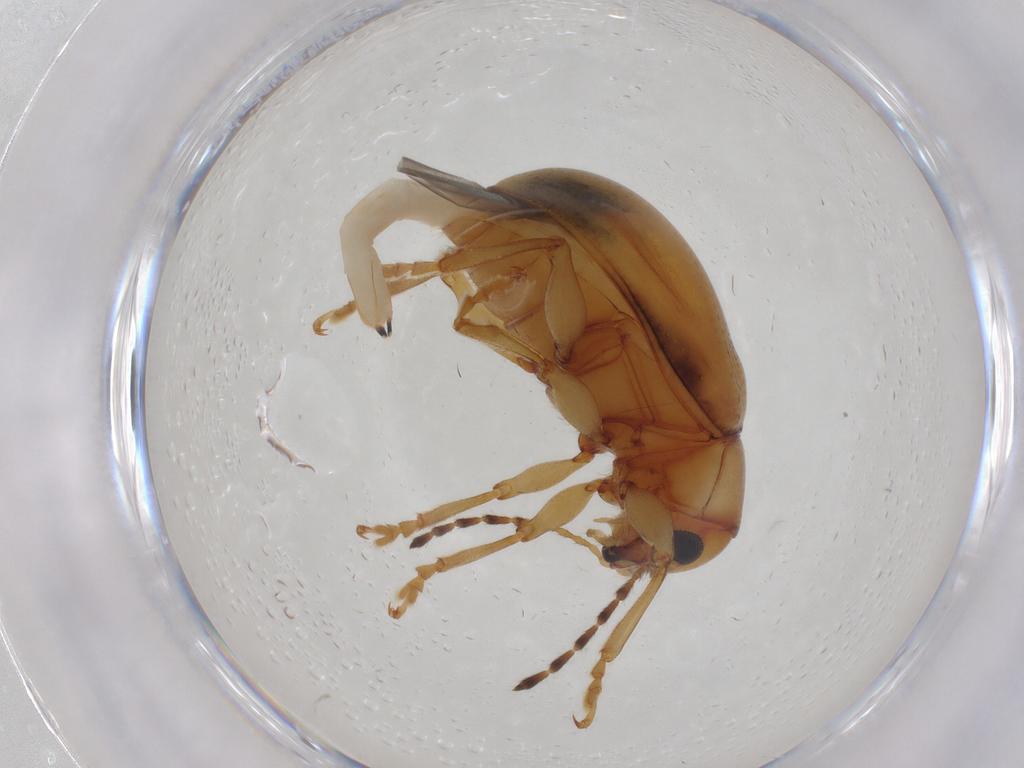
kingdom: Animalia
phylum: Arthropoda
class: Insecta
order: Coleoptera
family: Chrysomelidae
